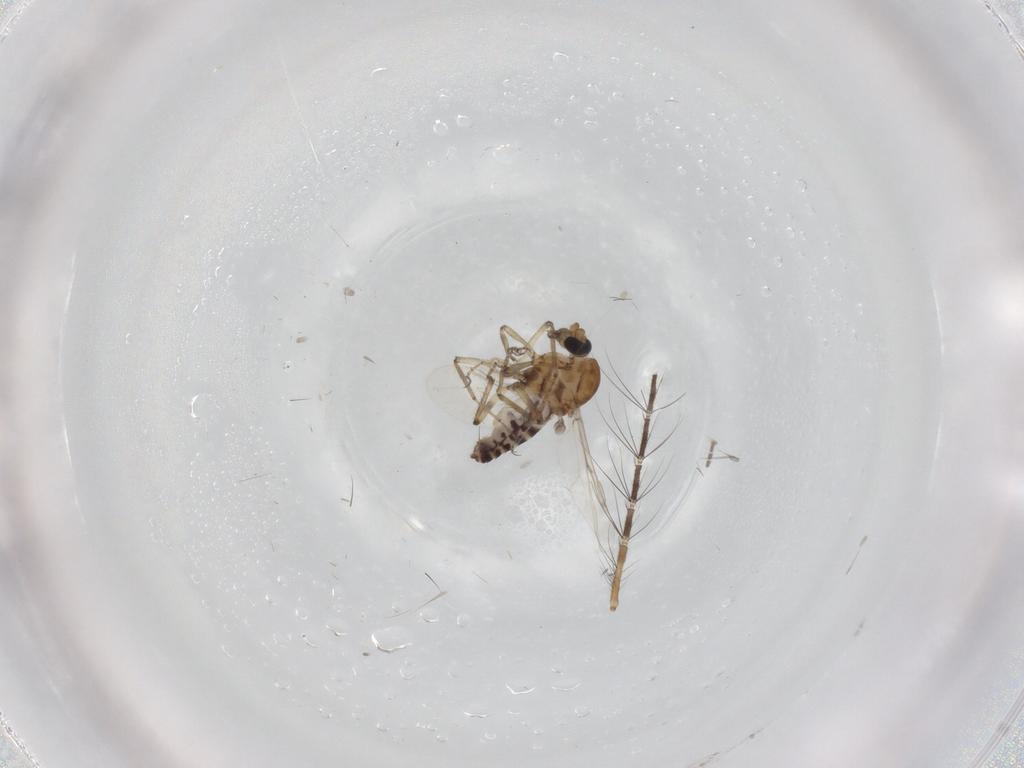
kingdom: Animalia
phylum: Arthropoda
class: Insecta
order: Diptera
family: Ceratopogonidae
